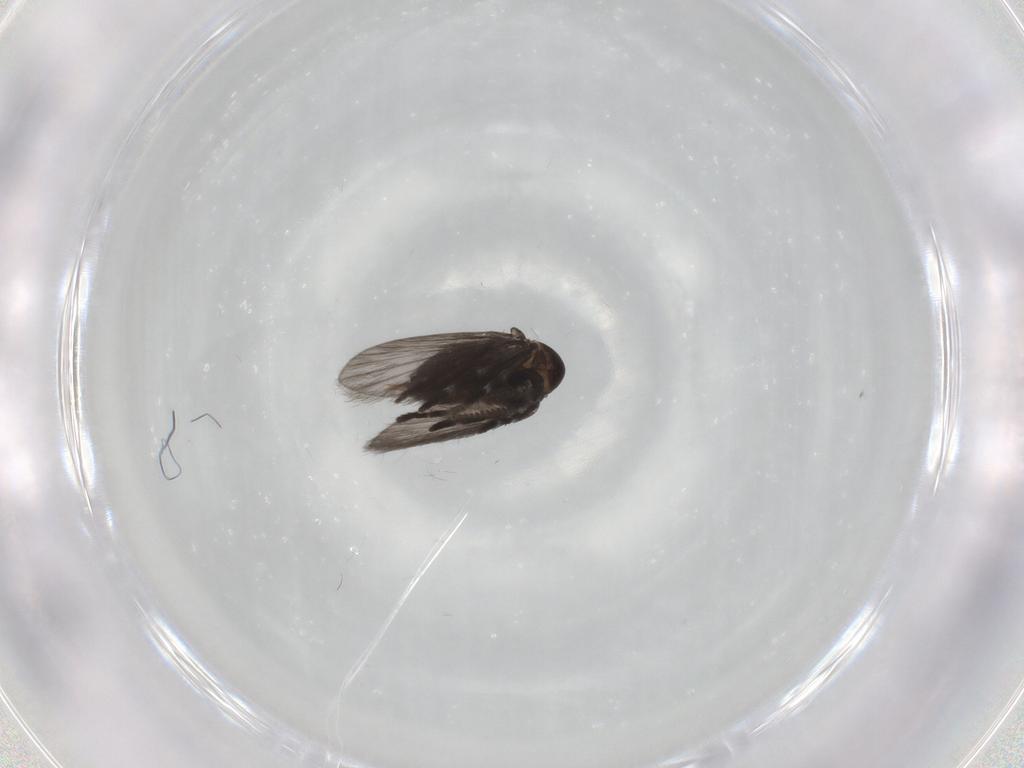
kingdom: Animalia
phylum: Arthropoda
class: Insecta
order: Diptera
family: Psychodidae
